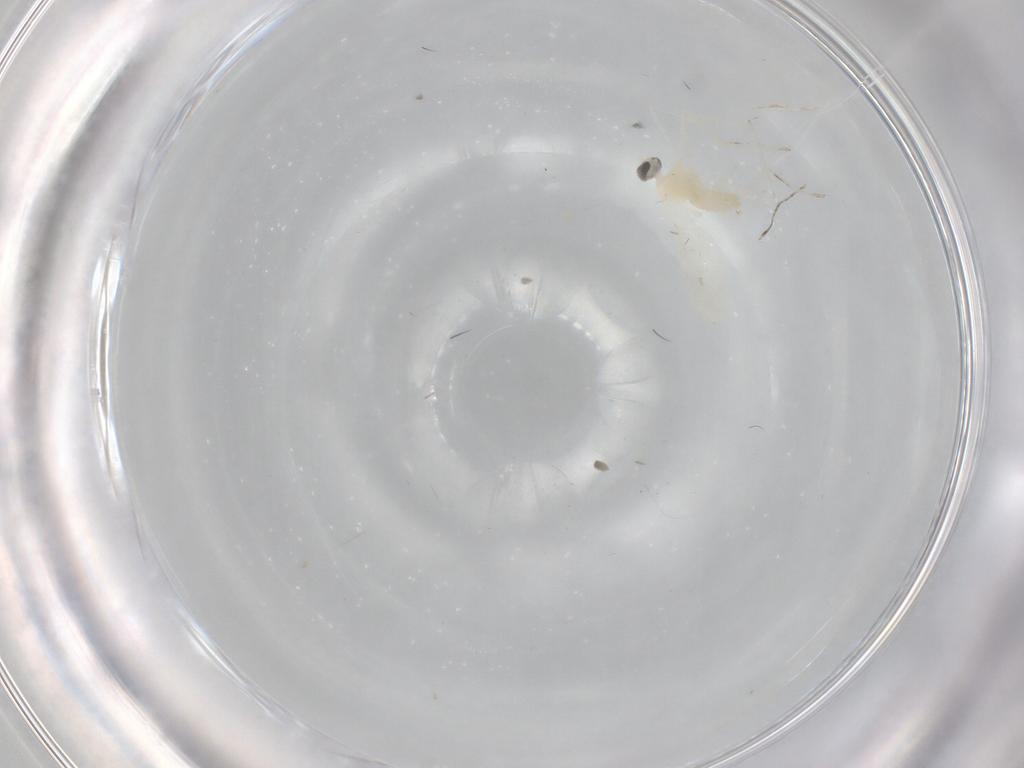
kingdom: Animalia
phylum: Arthropoda
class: Insecta
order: Diptera
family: Cecidomyiidae
